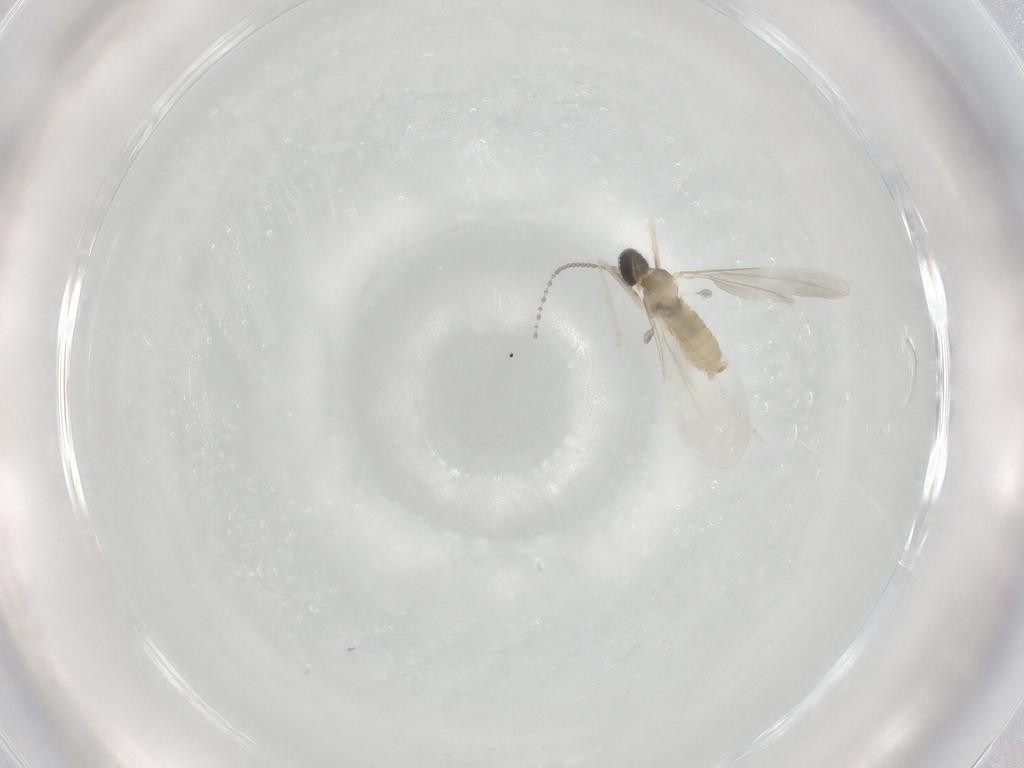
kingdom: Animalia
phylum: Arthropoda
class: Insecta
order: Diptera
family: Cecidomyiidae
